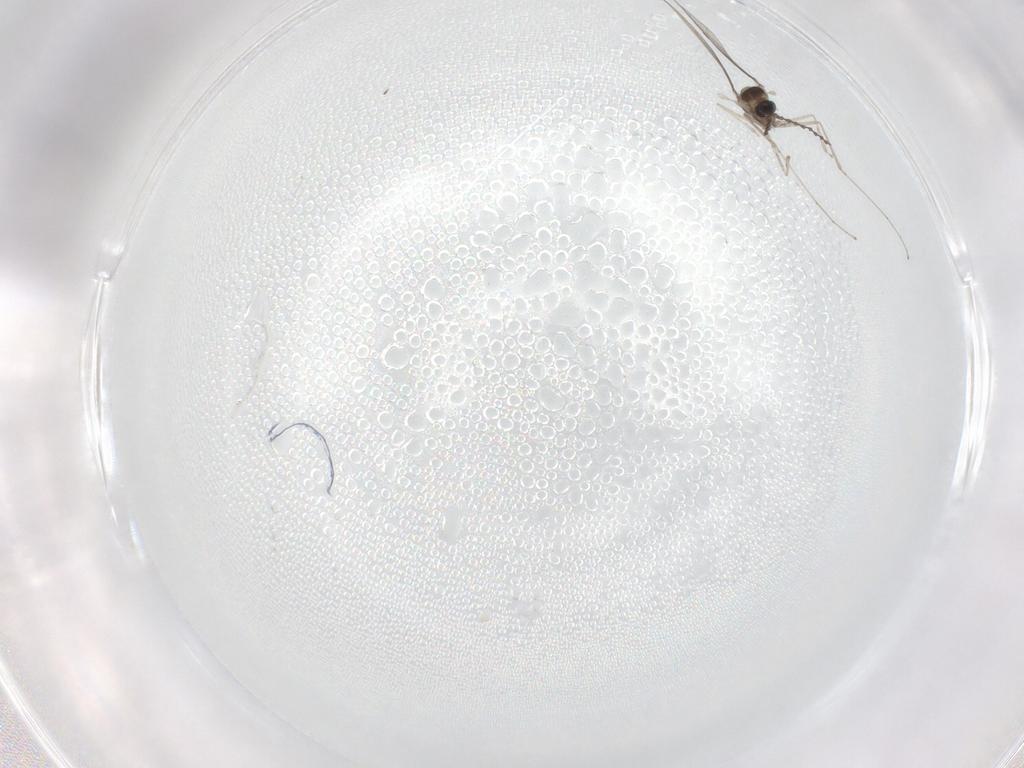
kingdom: Animalia
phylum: Arthropoda
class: Insecta
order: Diptera
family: Cecidomyiidae
